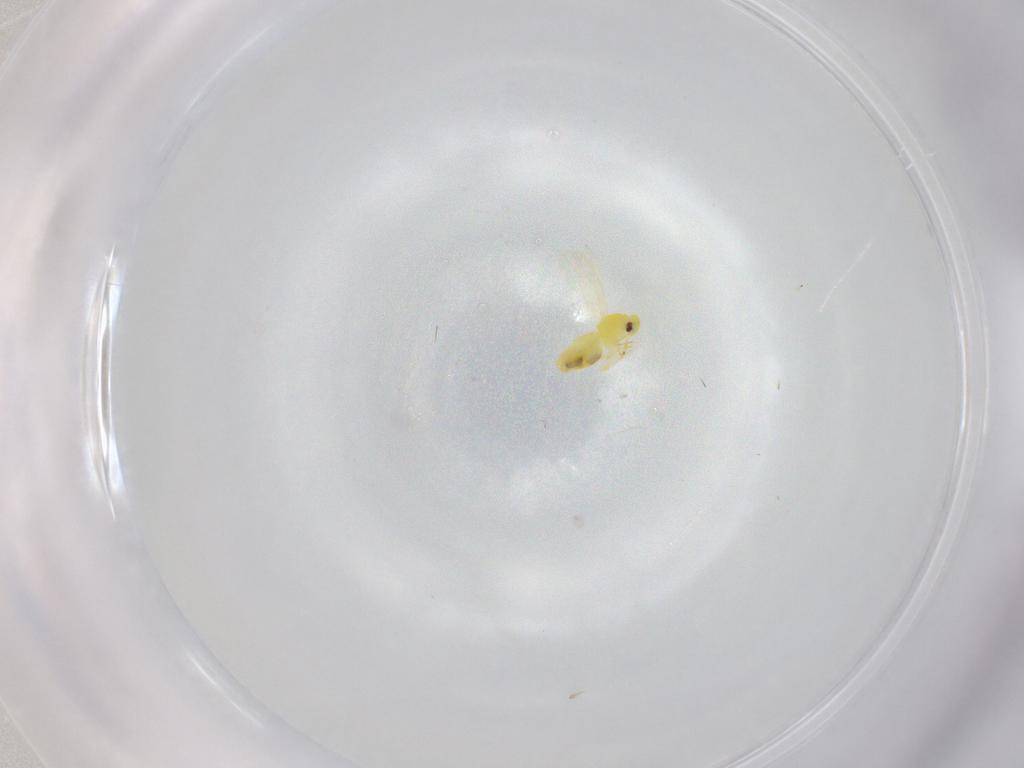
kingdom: Animalia
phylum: Arthropoda
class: Insecta
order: Hemiptera
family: Aleyrodidae
